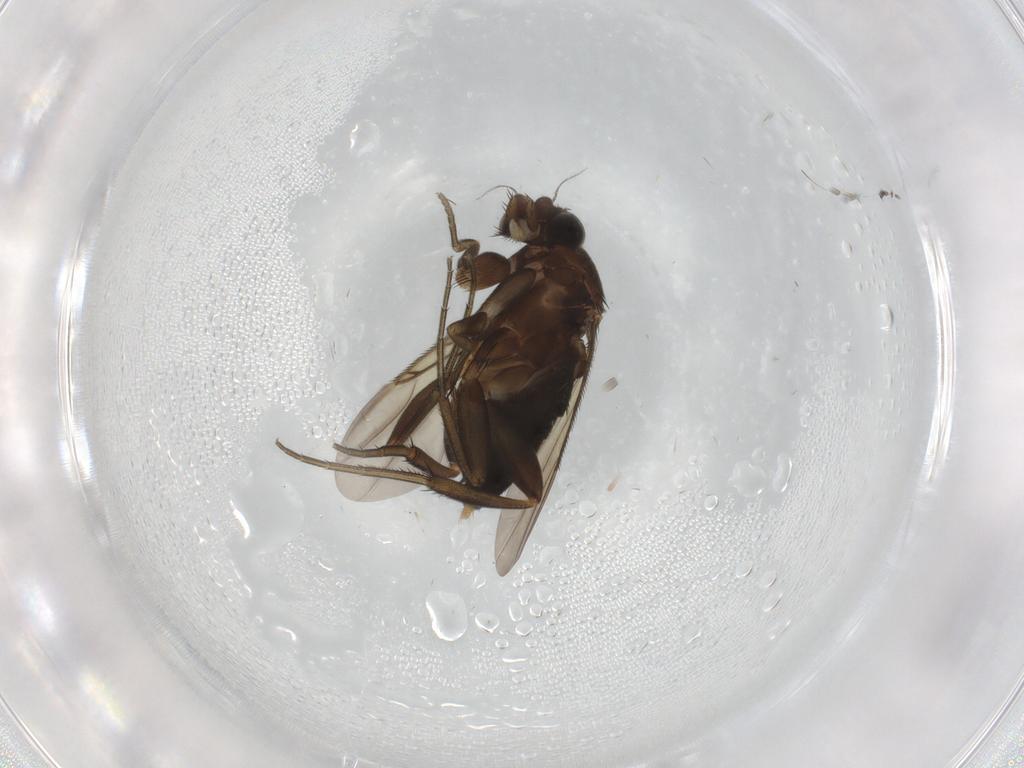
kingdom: Animalia
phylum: Arthropoda
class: Insecta
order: Diptera
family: Phoridae
